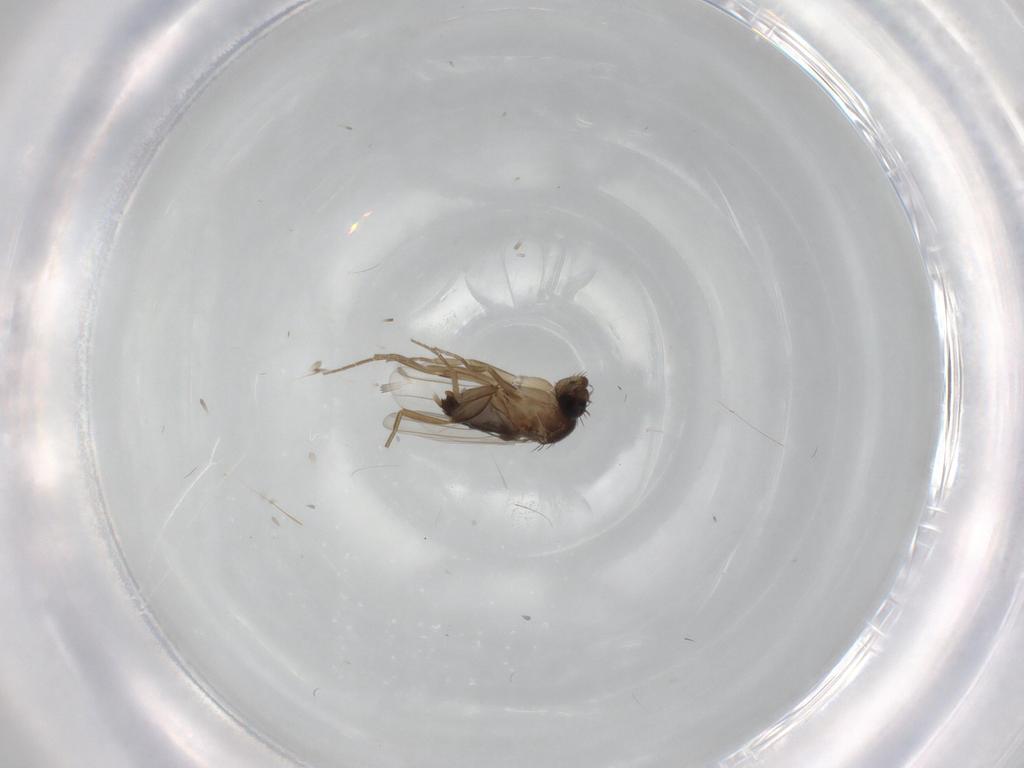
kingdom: Animalia
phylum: Arthropoda
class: Insecta
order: Diptera
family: Phoridae
